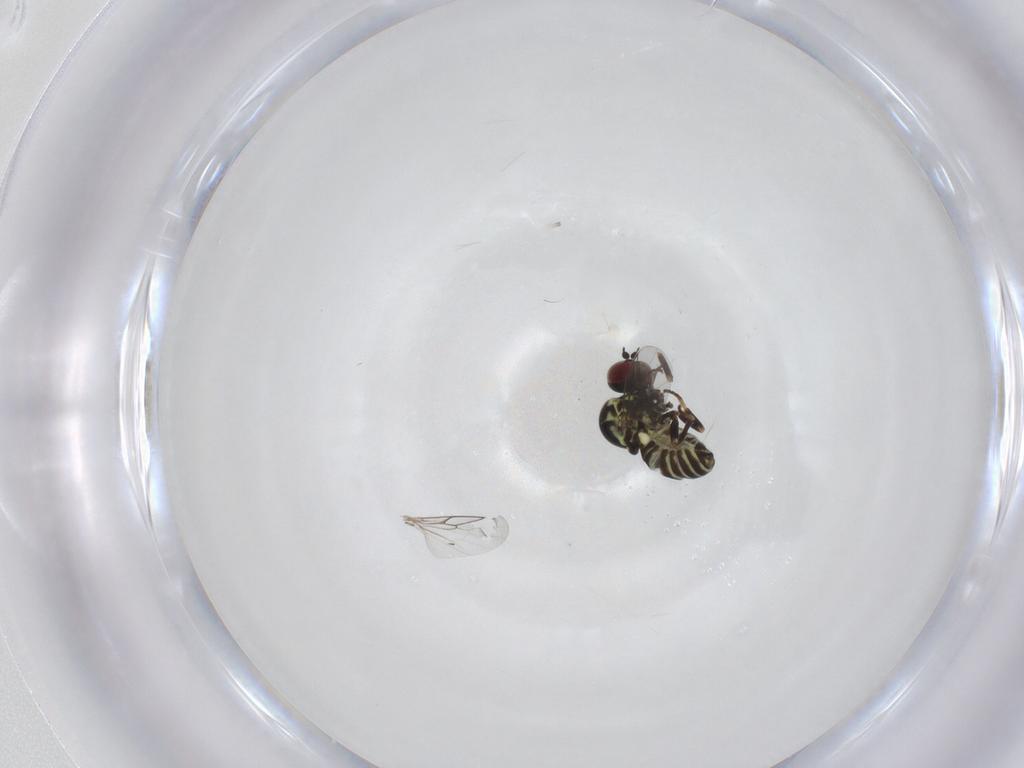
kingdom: Animalia
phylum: Arthropoda
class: Insecta
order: Diptera
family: Mythicomyiidae
